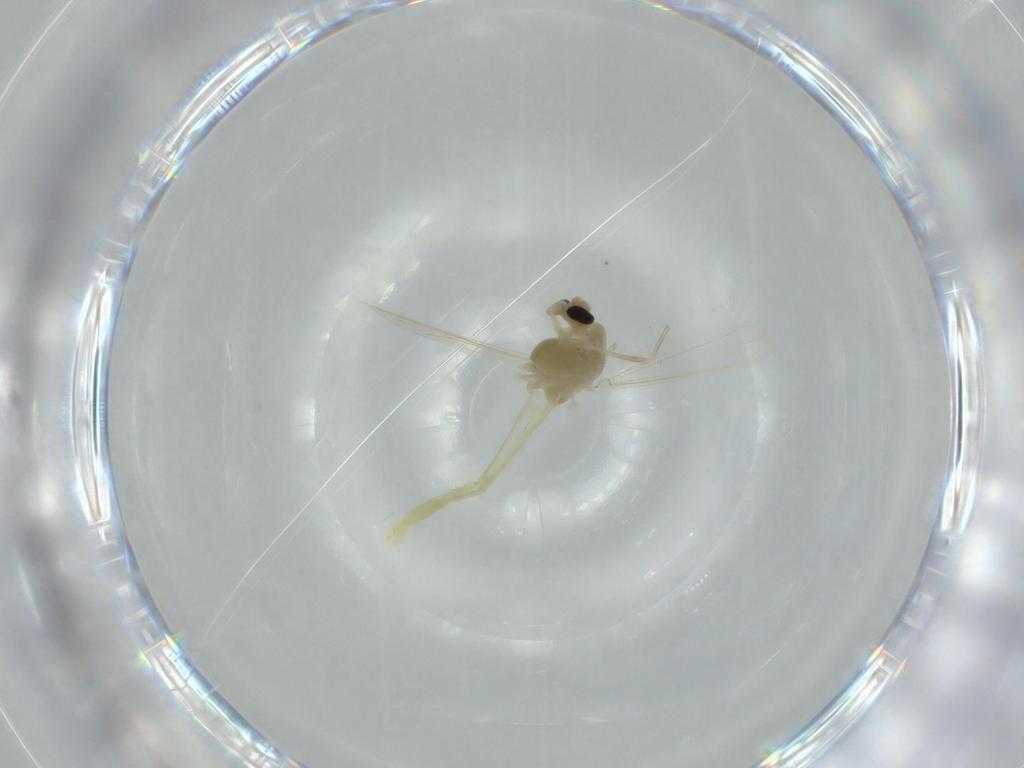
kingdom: Animalia
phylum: Arthropoda
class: Insecta
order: Diptera
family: Chironomidae
